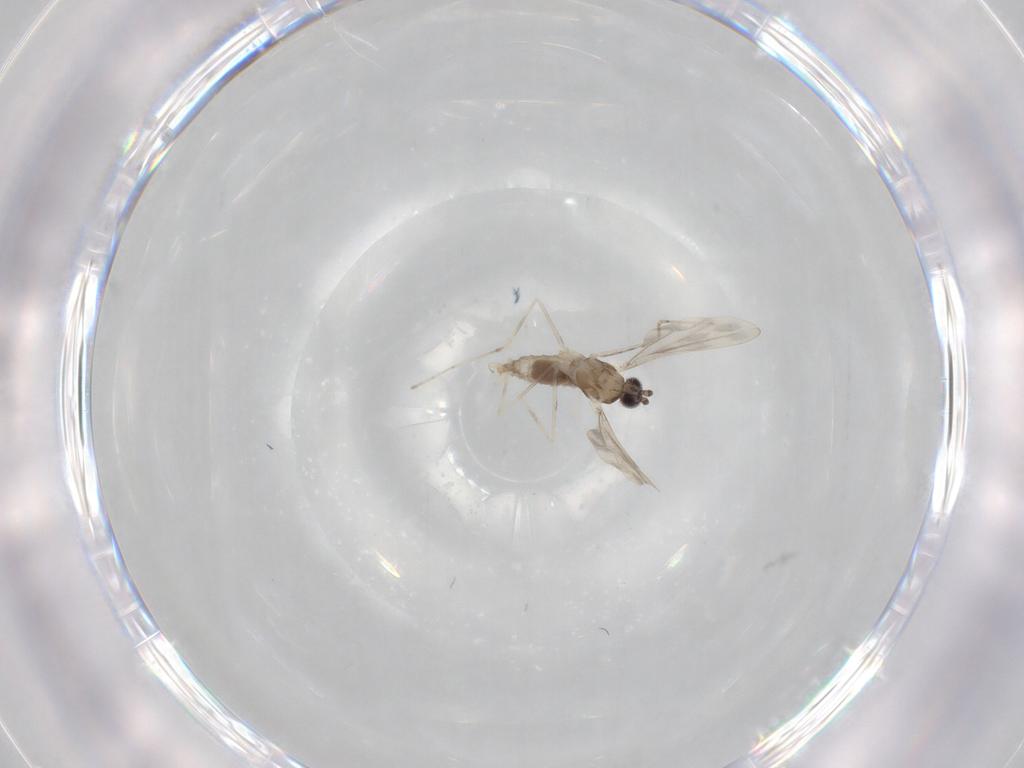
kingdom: Animalia
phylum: Arthropoda
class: Insecta
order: Diptera
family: Cecidomyiidae
